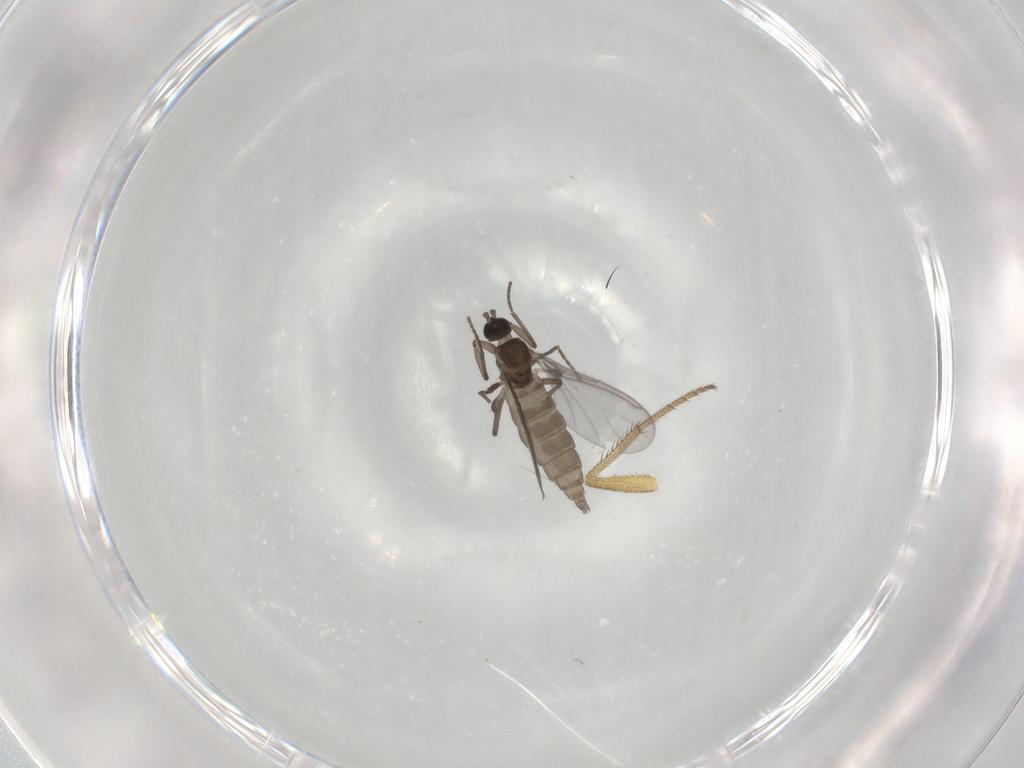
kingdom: Animalia
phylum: Arthropoda
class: Insecta
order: Diptera
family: Sciaridae
